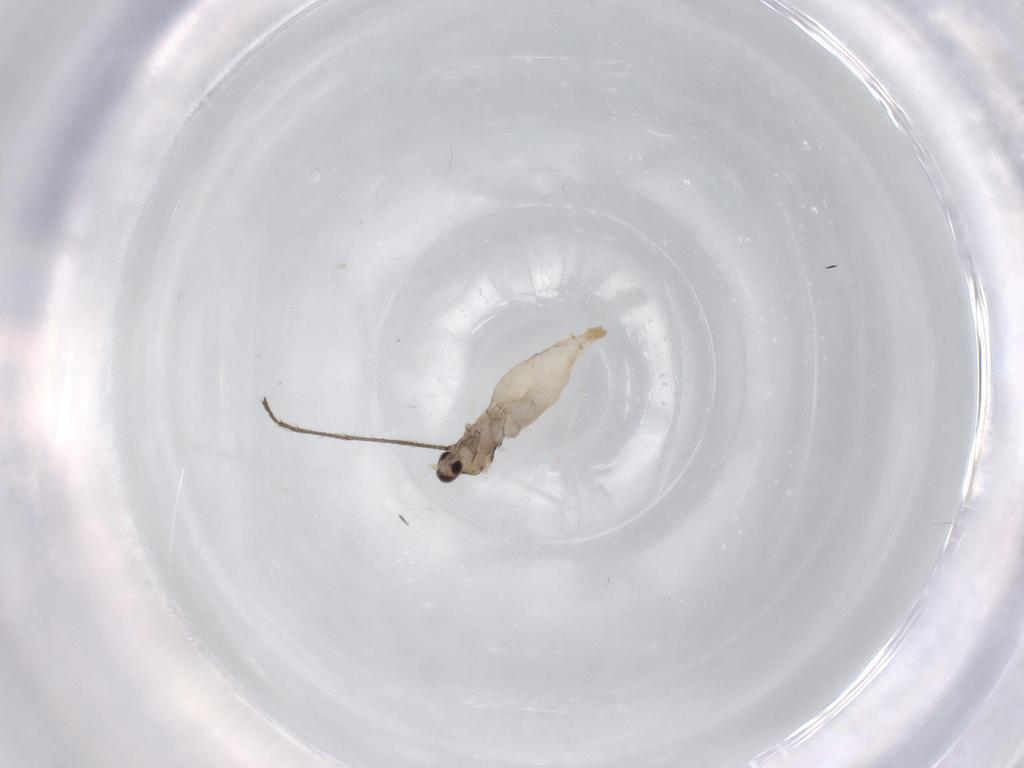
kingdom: Animalia
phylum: Arthropoda
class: Insecta
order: Diptera
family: Cecidomyiidae
